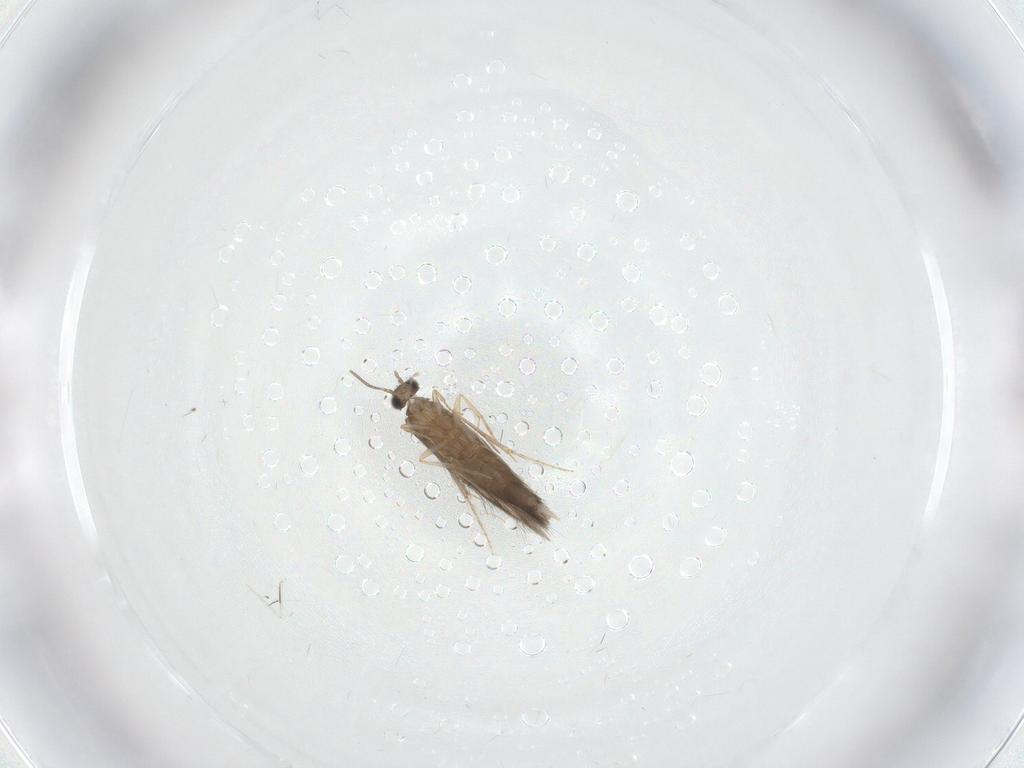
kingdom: Animalia
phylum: Arthropoda
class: Insecta
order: Trichoptera
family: Hydroptilidae
